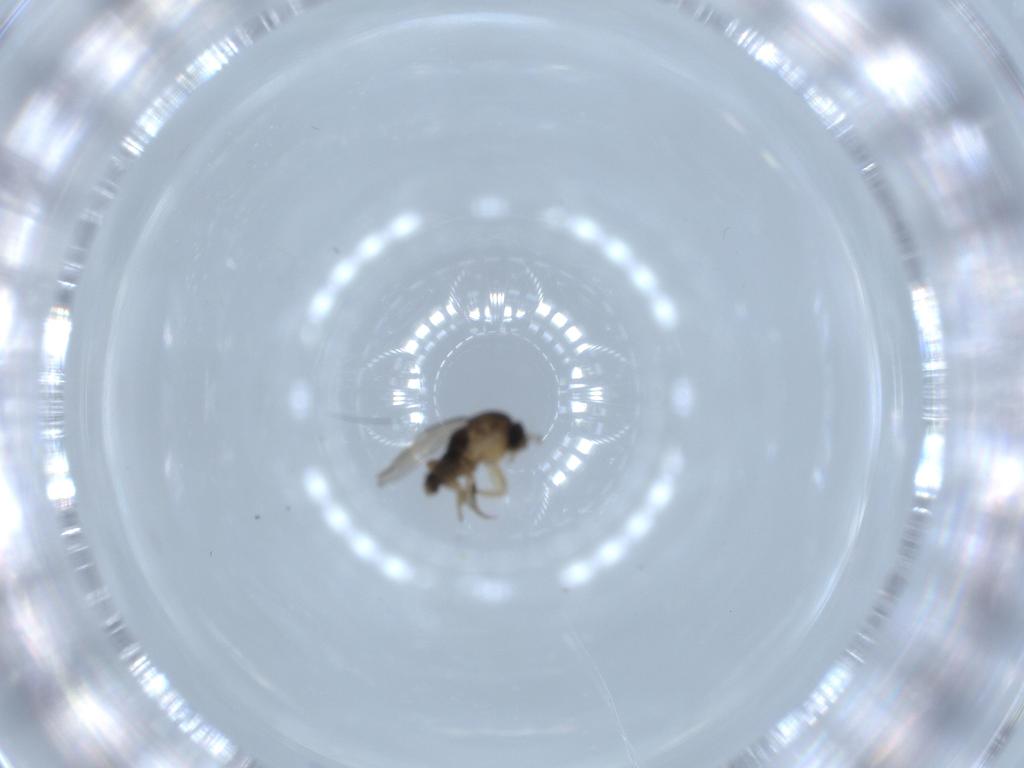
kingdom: Animalia
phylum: Arthropoda
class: Insecta
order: Diptera
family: Phoridae
